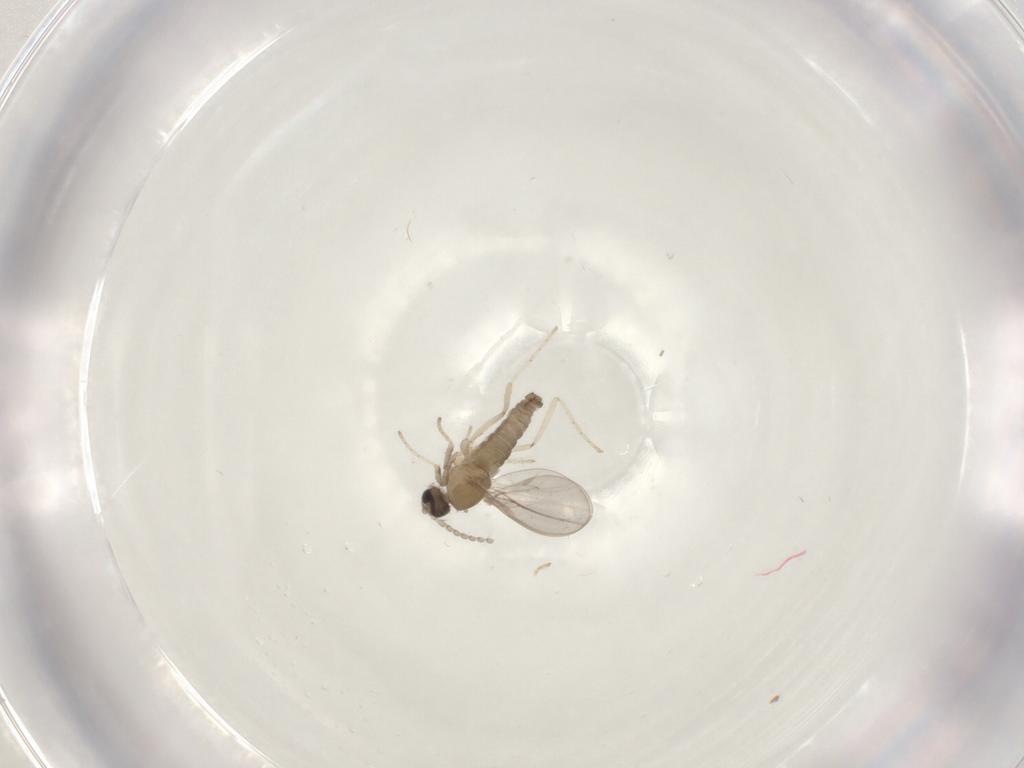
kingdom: Animalia
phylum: Arthropoda
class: Insecta
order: Diptera
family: Cecidomyiidae
